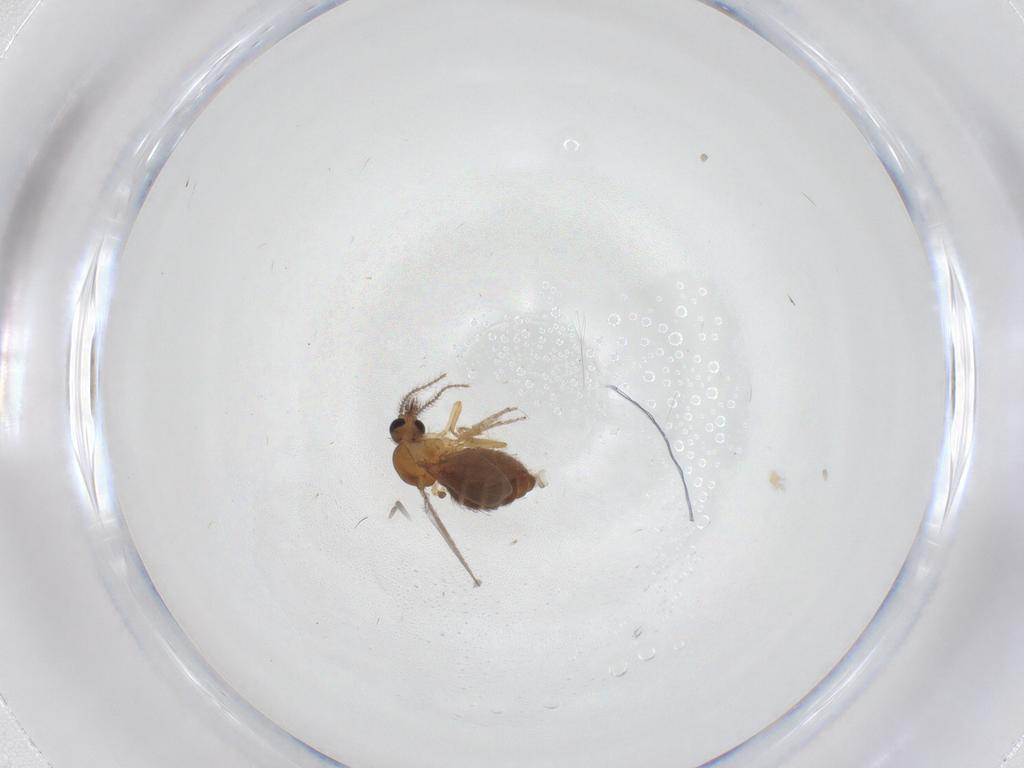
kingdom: Animalia
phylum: Arthropoda
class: Insecta
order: Diptera
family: Ceratopogonidae
